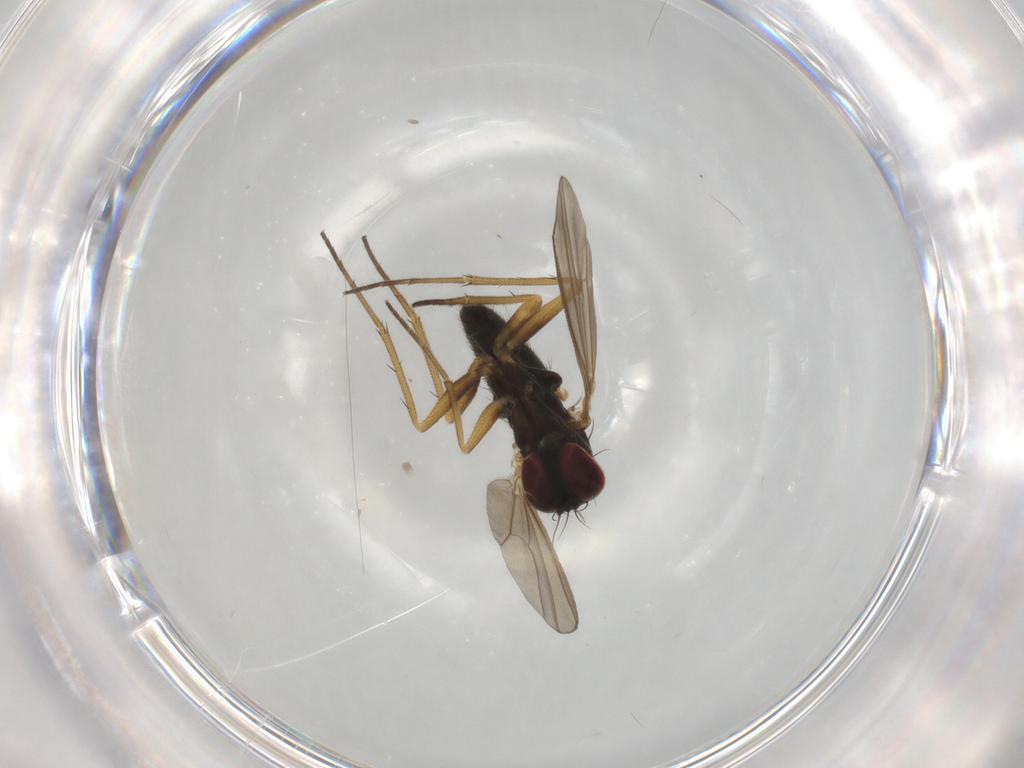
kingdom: Animalia
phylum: Arthropoda
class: Insecta
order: Diptera
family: Anthomyiidae
